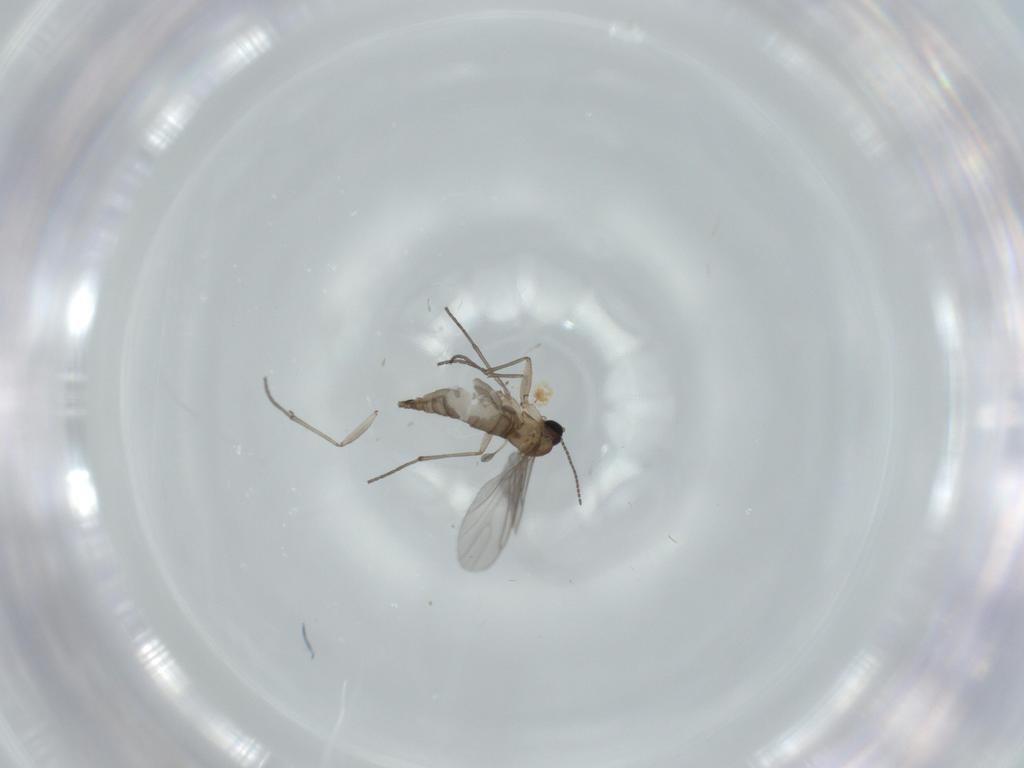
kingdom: Animalia
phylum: Arthropoda
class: Insecta
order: Diptera
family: Sciaridae
